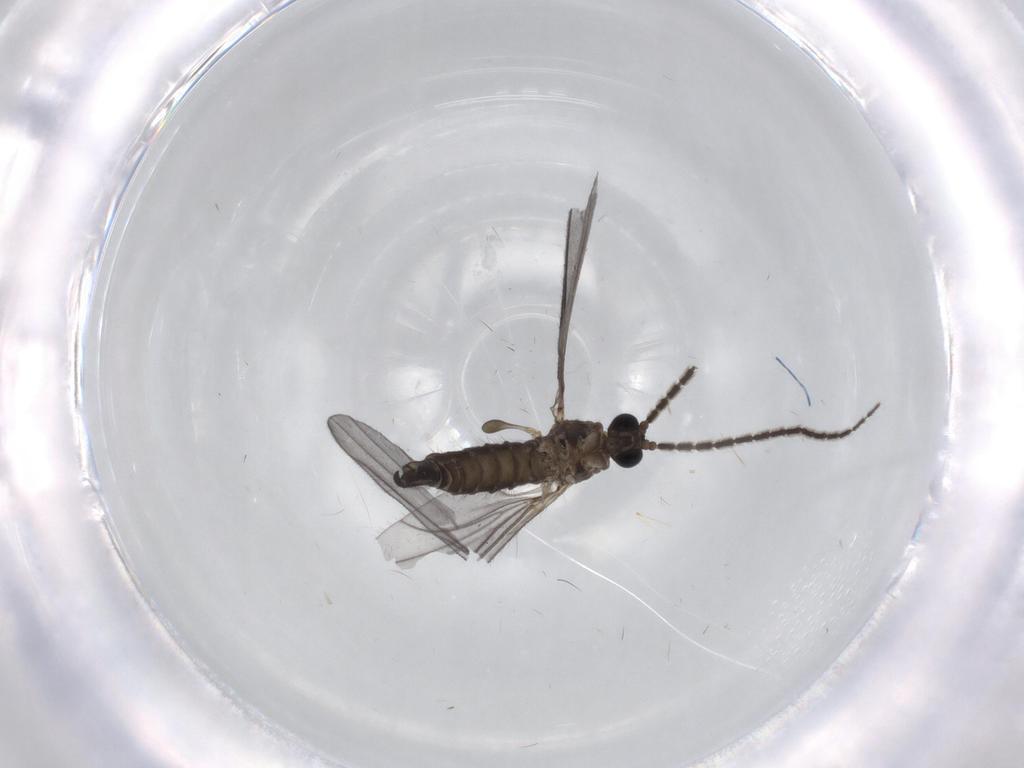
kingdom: Animalia
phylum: Arthropoda
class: Insecta
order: Diptera
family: Sciaridae
